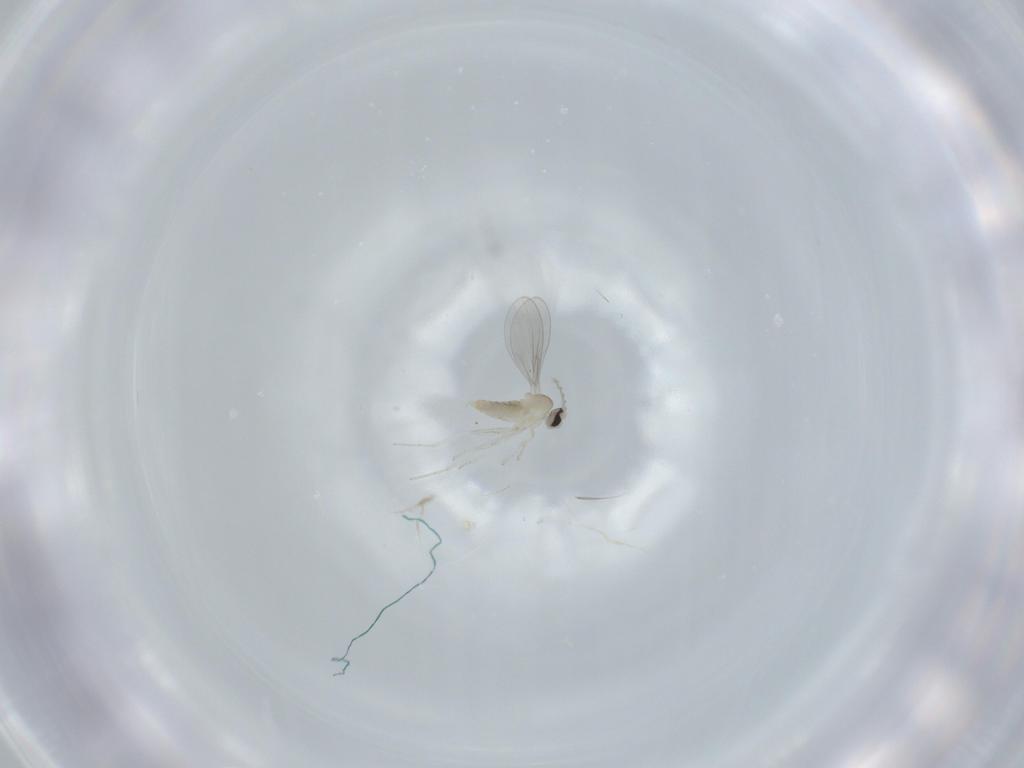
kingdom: Animalia
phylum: Arthropoda
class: Insecta
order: Diptera
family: Cecidomyiidae
